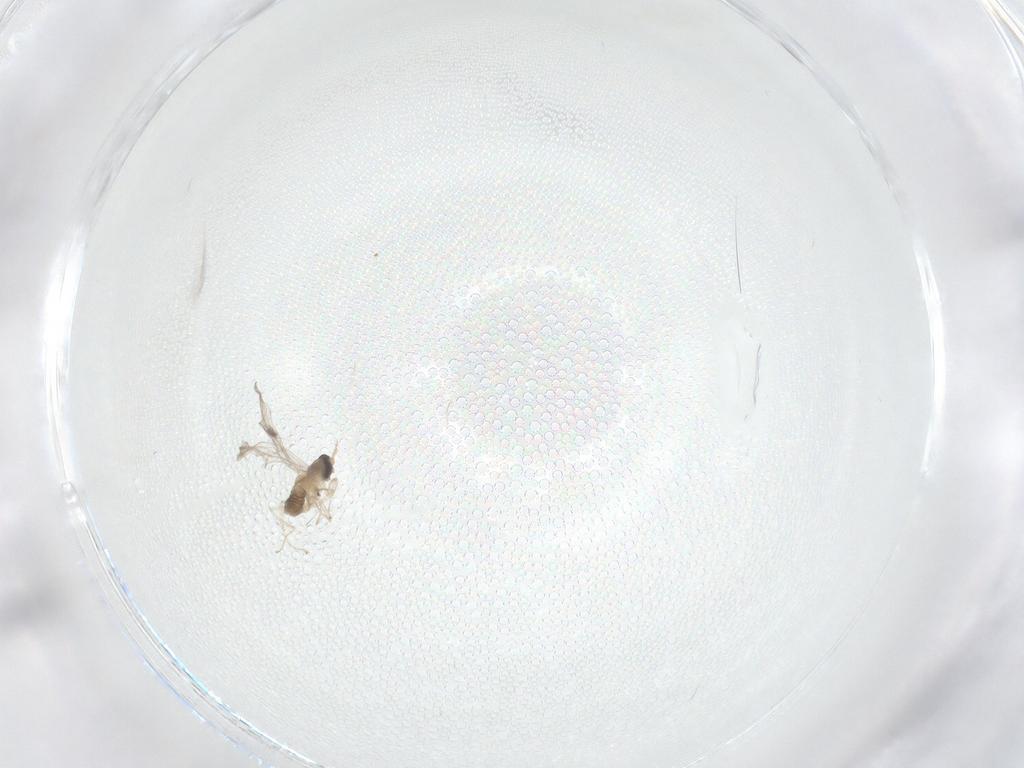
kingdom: Animalia
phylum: Arthropoda
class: Insecta
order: Diptera
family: Cecidomyiidae
